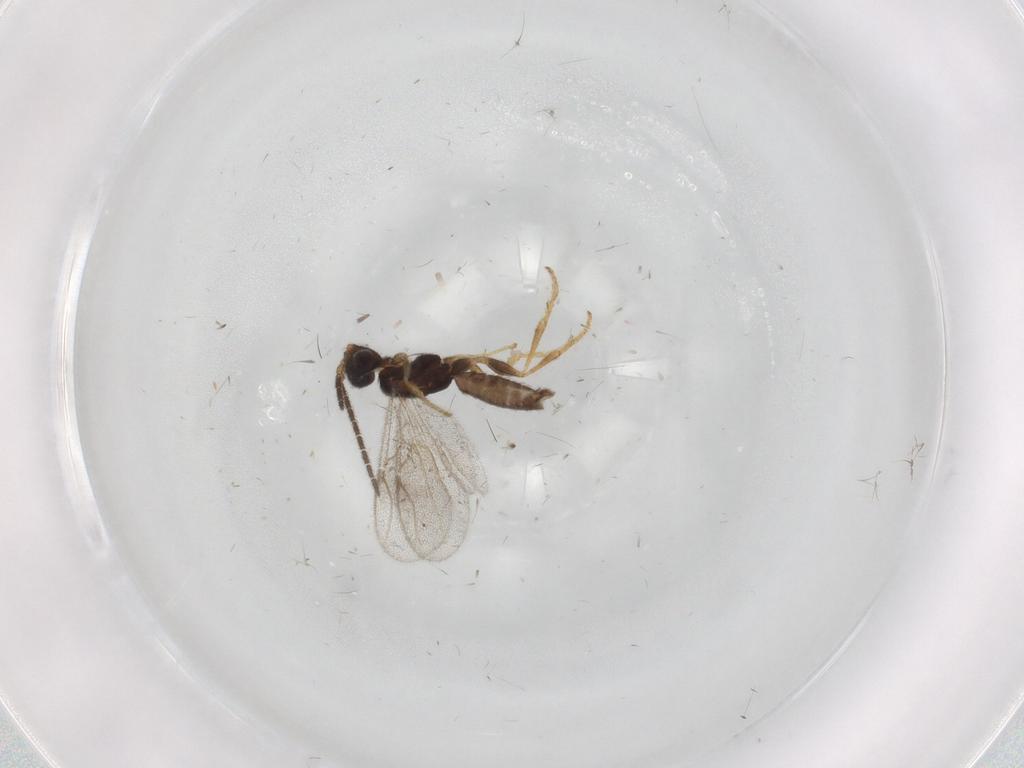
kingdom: Animalia
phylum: Arthropoda
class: Insecta
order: Hymenoptera
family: Dryinidae
